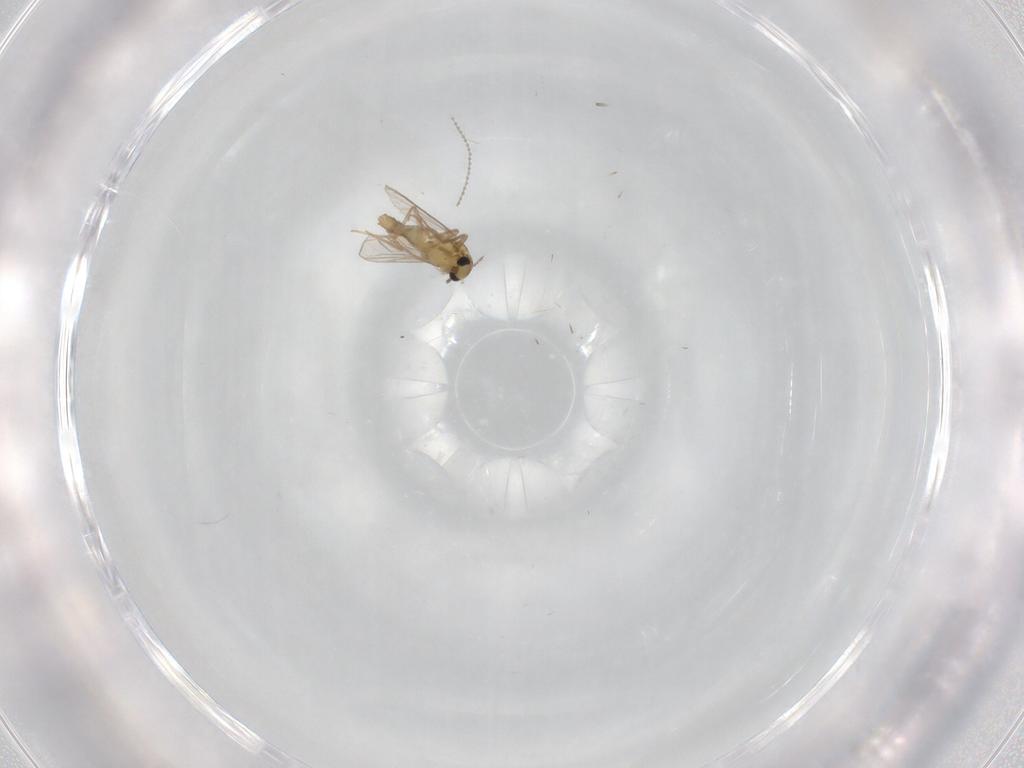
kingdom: Animalia
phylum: Arthropoda
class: Insecta
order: Diptera
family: Chironomidae
